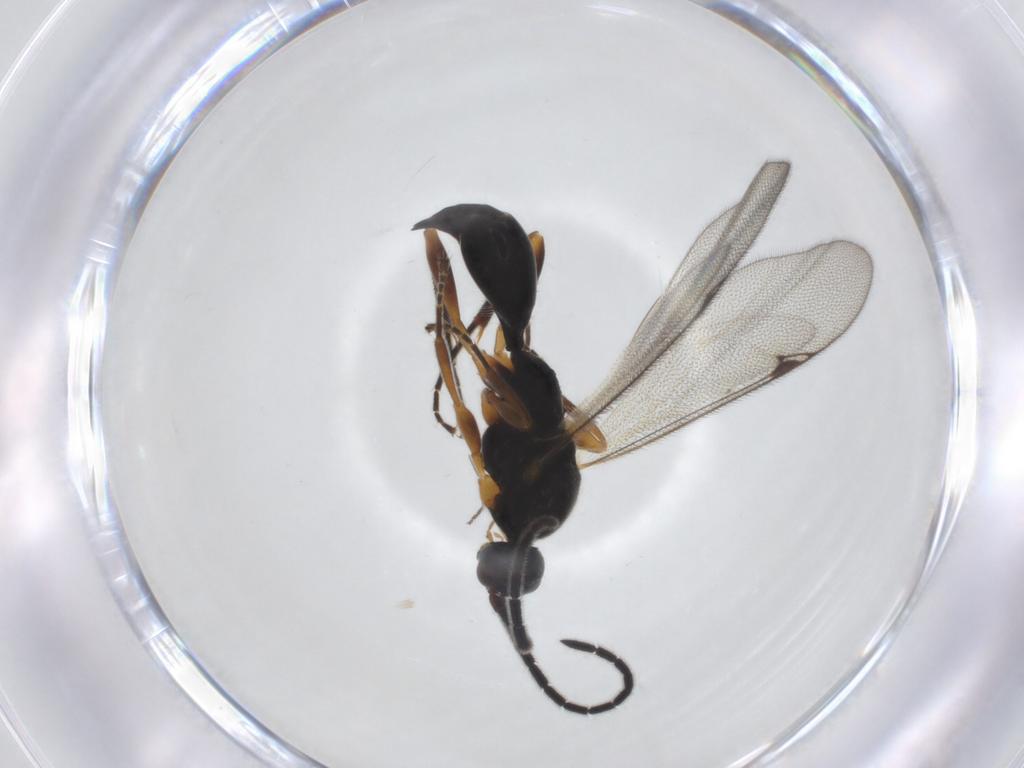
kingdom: Animalia
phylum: Arthropoda
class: Insecta
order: Hymenoptera
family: Proctotrupidae
